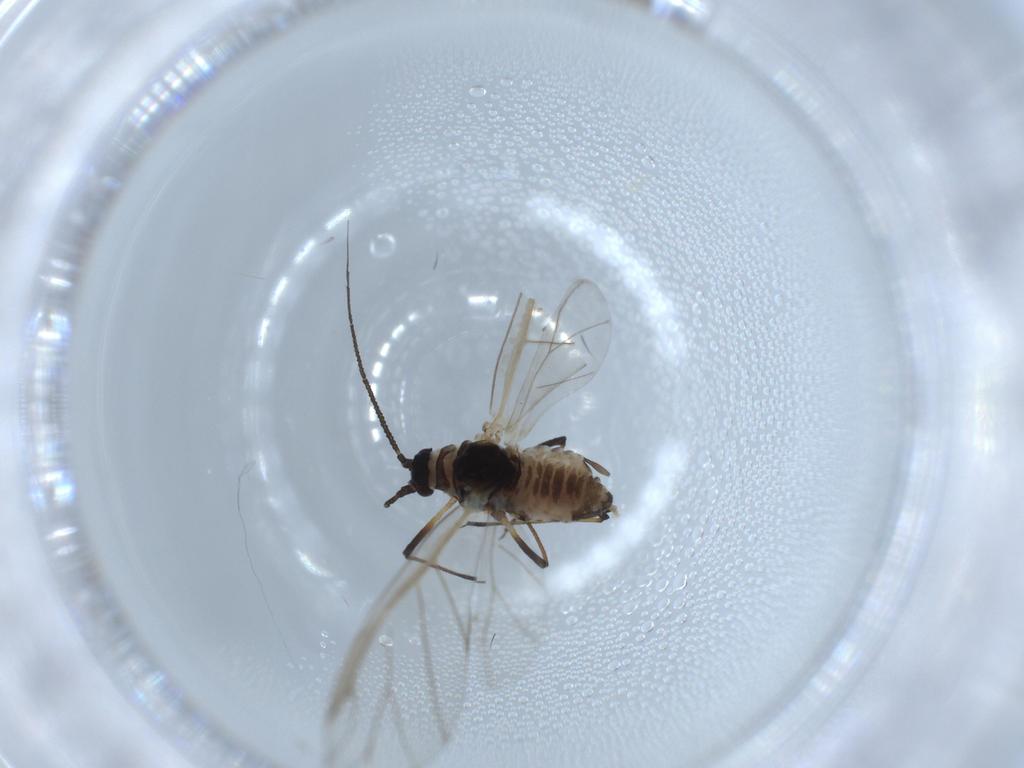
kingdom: Animalia
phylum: Arthropoda
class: Insecta
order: Hemiptera
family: Aphididae
